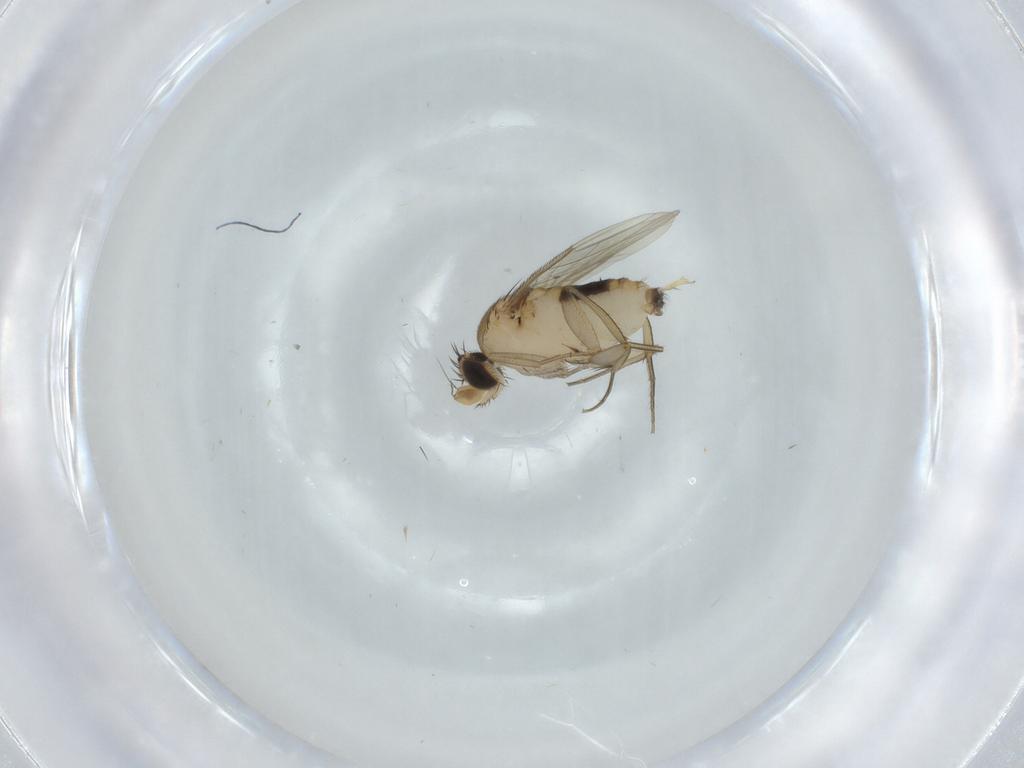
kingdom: Animalia
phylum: Arthropoda
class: Insecta
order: Diptera
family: Phoridae
